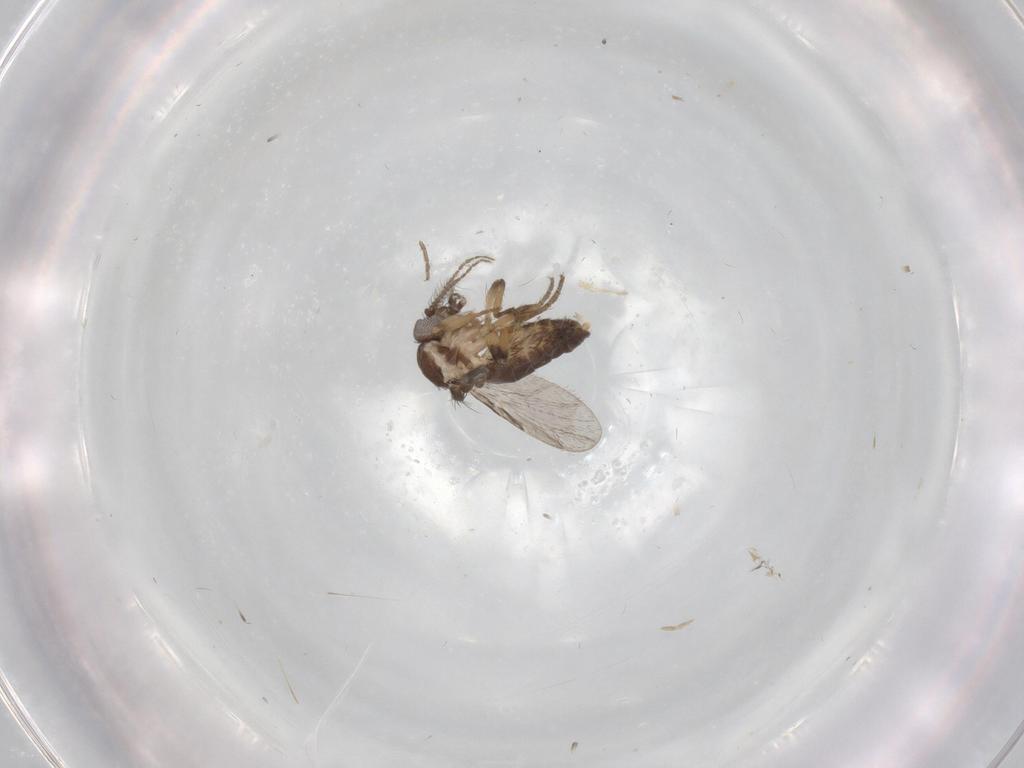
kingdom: Animalia
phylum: Arthropoda
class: Insecta
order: Diptera
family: Ceratopogonidae
